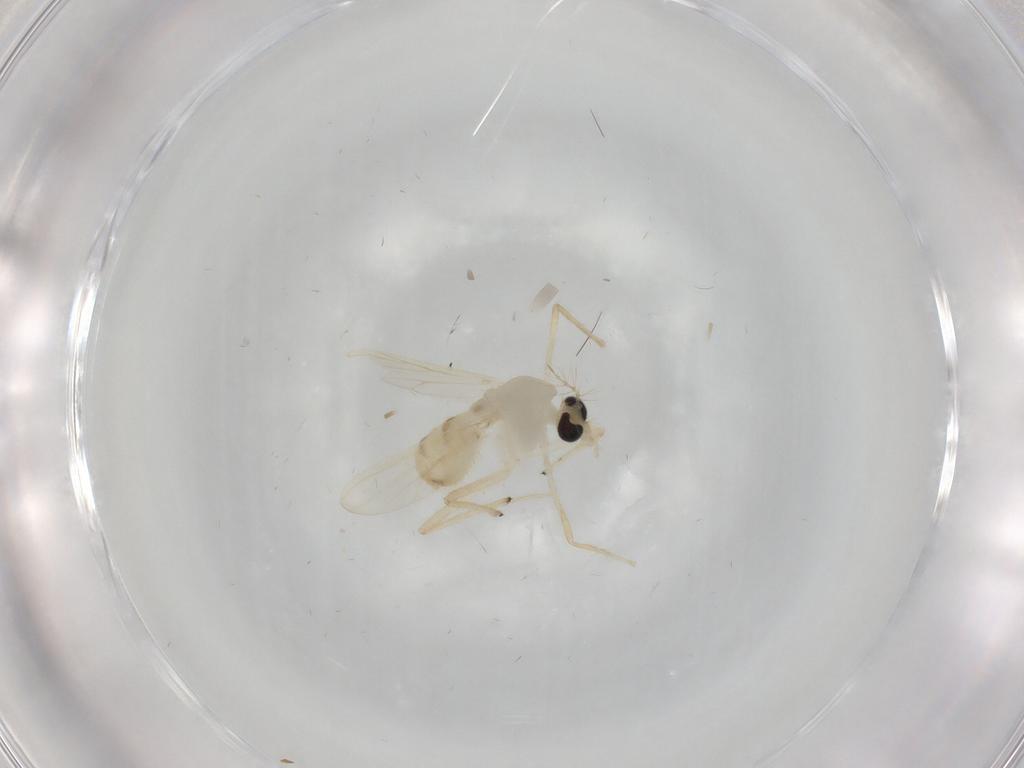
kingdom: Animalia
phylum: Arthropoda
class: Insecta
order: Diptera
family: Chironomidae
